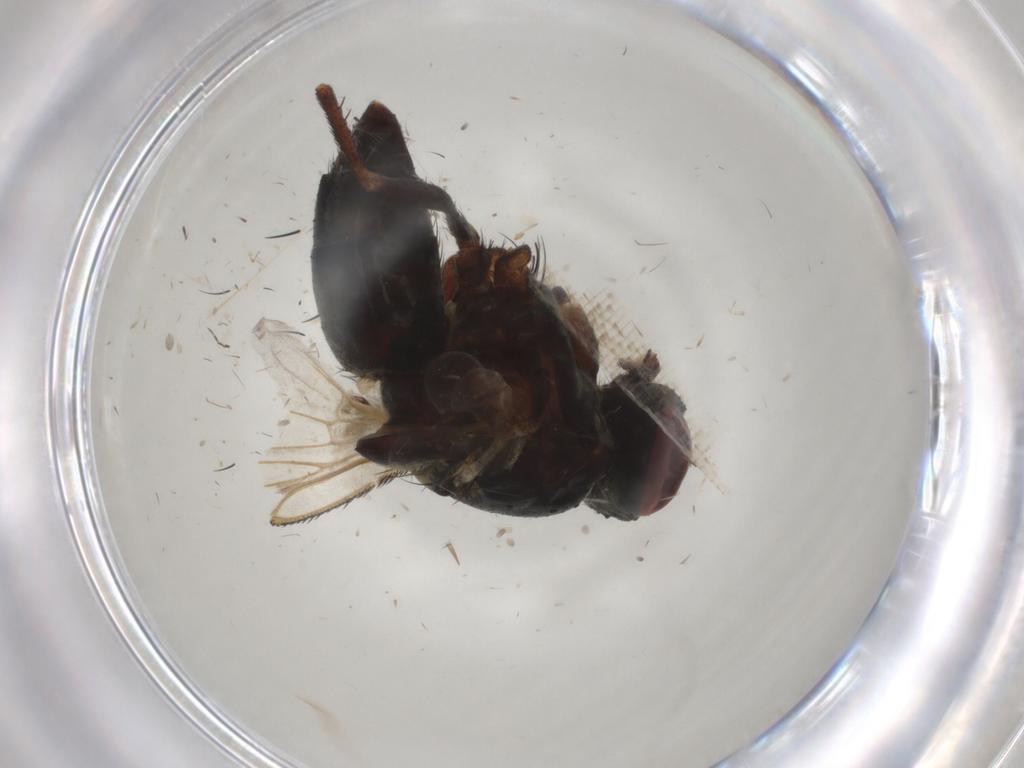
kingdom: Animalia
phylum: Arthropoda
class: Insecta
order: Diptera
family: Muscidae
